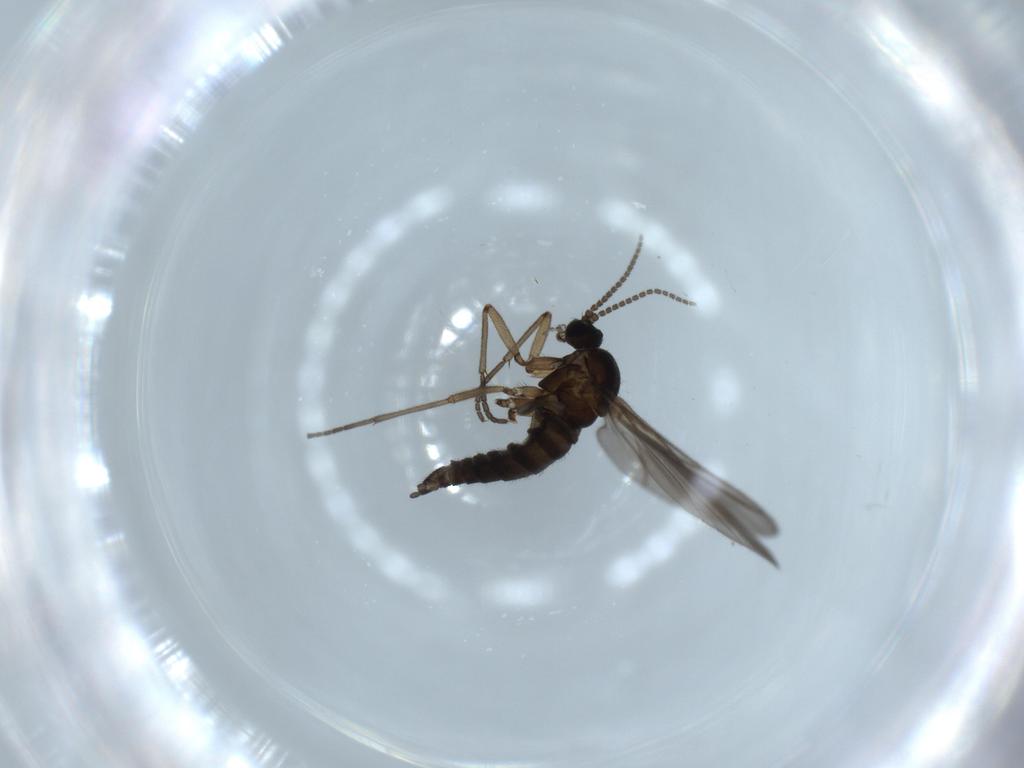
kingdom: Animalia
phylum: Arthropoda
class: Insecta
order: Diptera
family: Sciaridae
